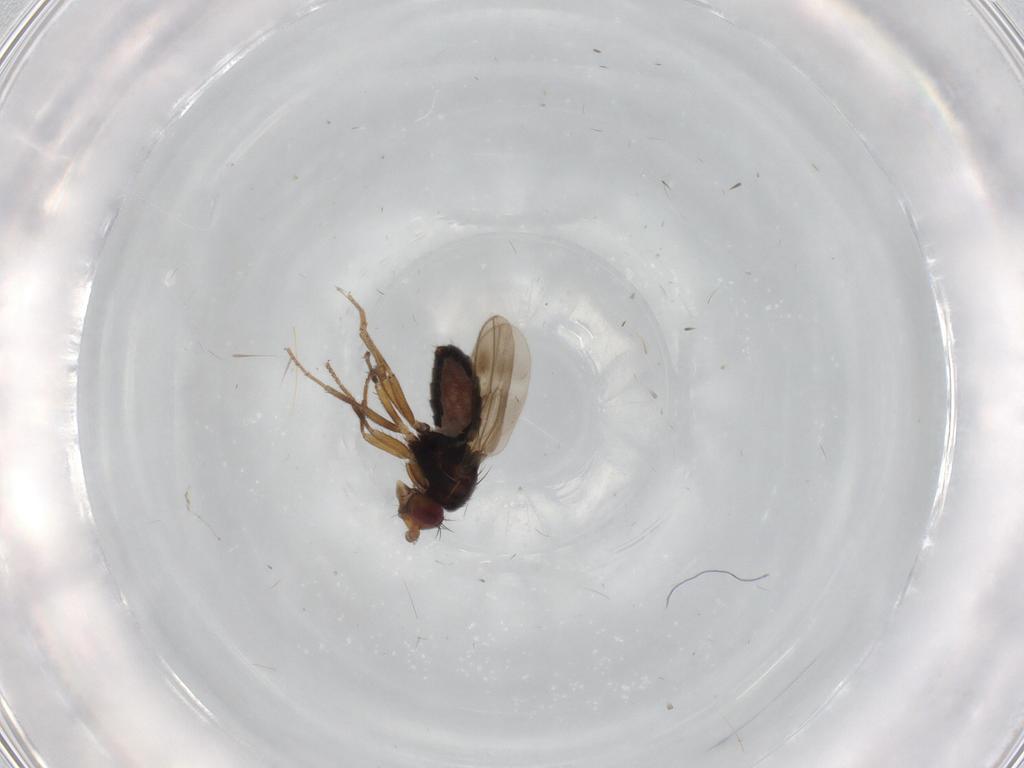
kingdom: Animalia
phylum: Arthropoda
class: Insecta
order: Diptera
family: Sphaeroceridae
